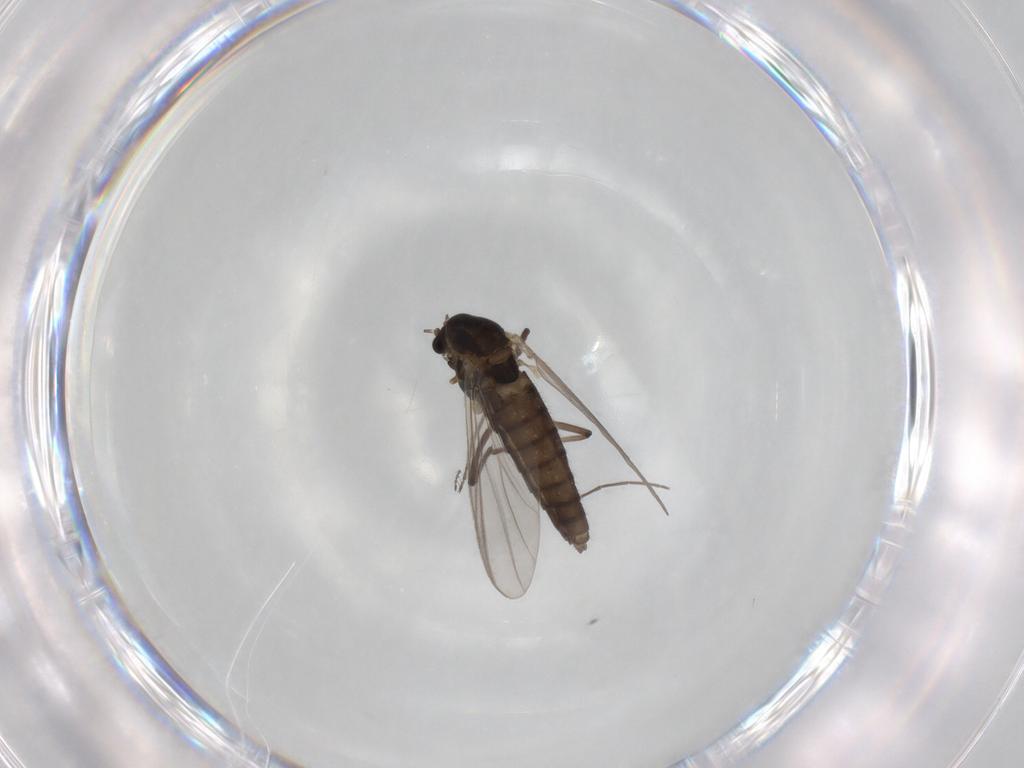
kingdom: Animalia
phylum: Arthropoda
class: Insecta
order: Diptera
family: Chironomidae
